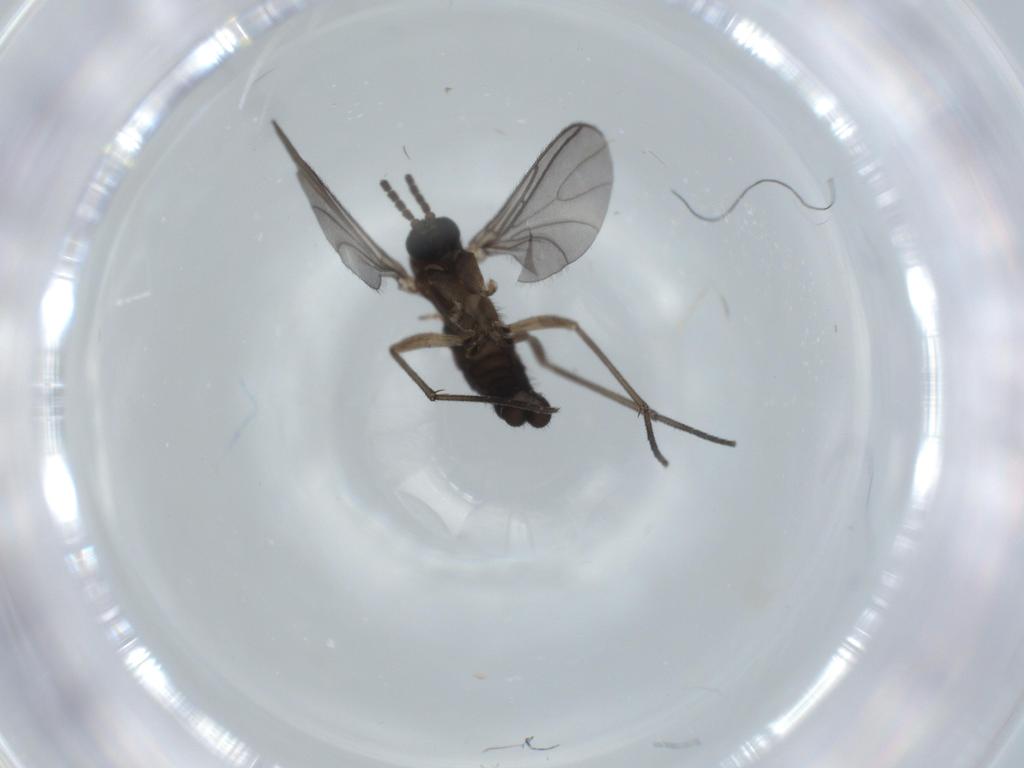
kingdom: Animalia
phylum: Arthropoda
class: Insecta
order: Diptera
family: Sciaridae
